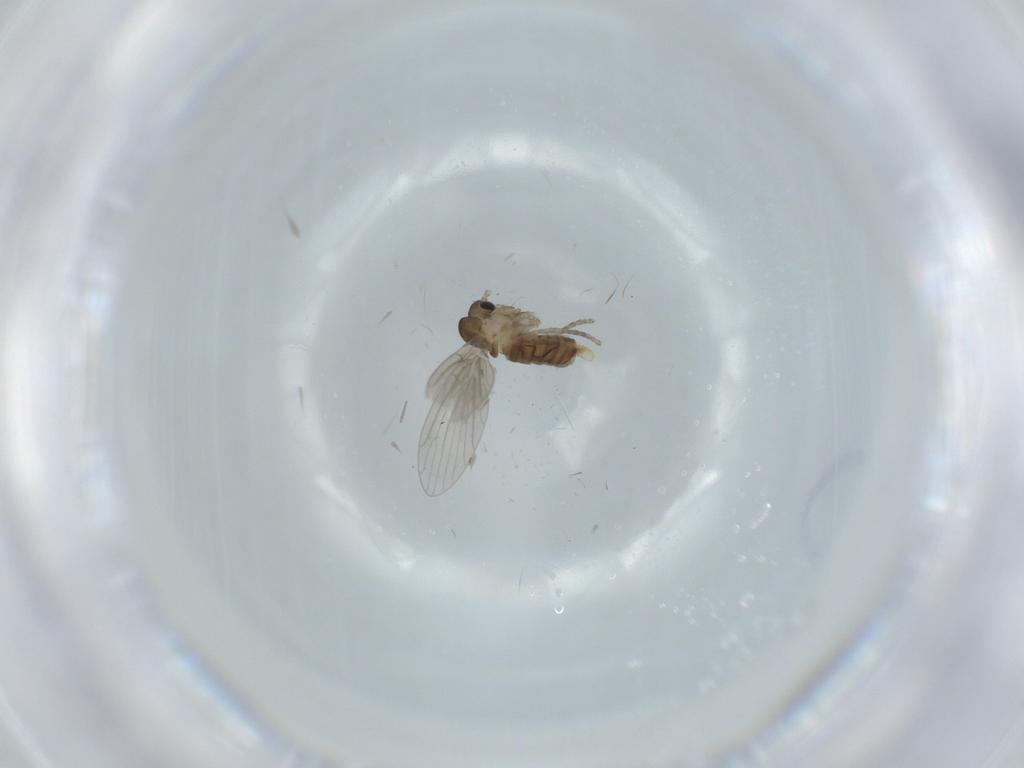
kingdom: Animalia
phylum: Arthropoda
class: Insecta
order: Diptera
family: Psychodidae
